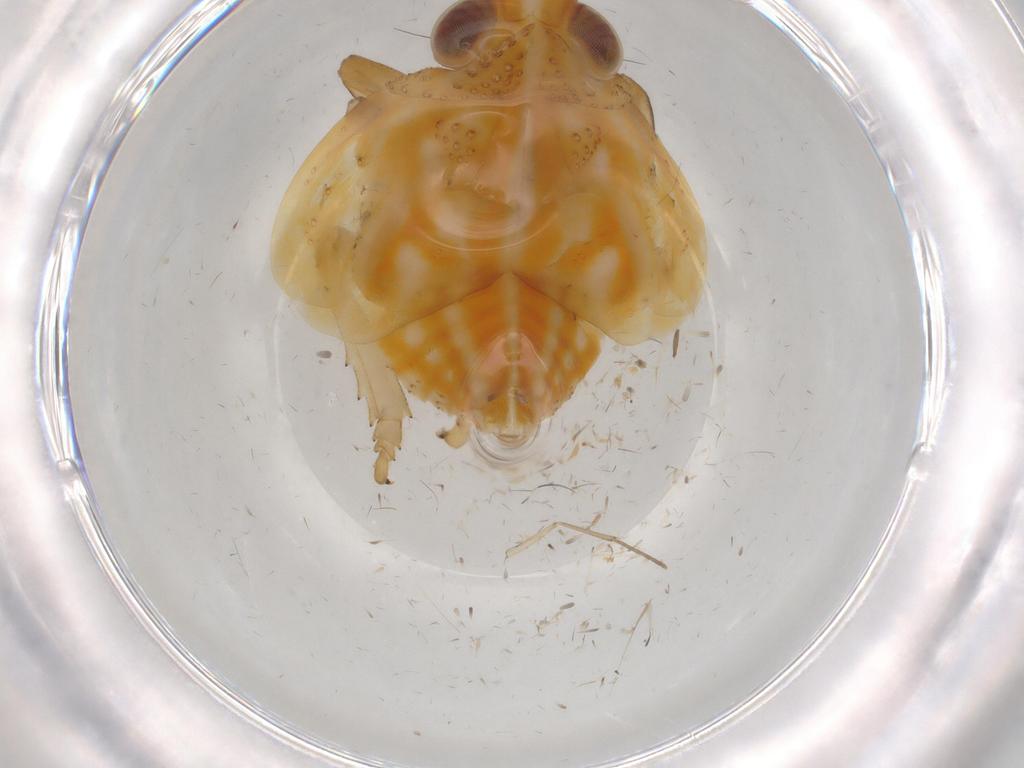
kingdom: Animalia
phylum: Arthropoda
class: Insecta
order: Hemiptera
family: Issidae
